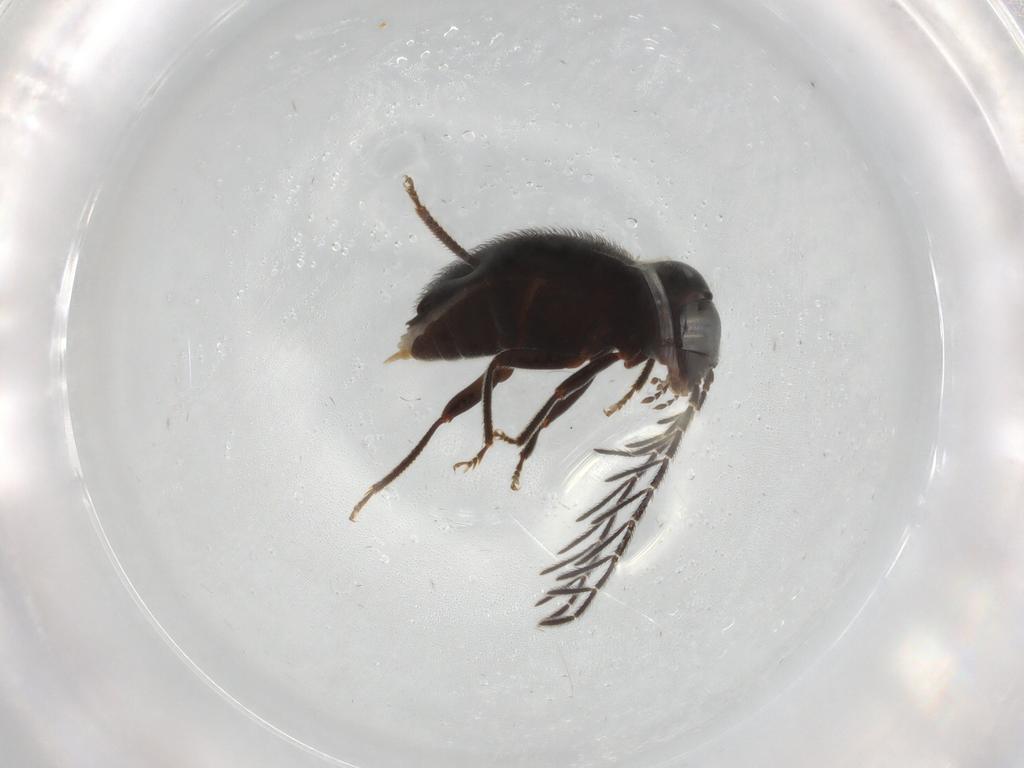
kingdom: Animalia
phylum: Arthropoda
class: Insecta
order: Coleoptera
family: Ptilodactylidae
